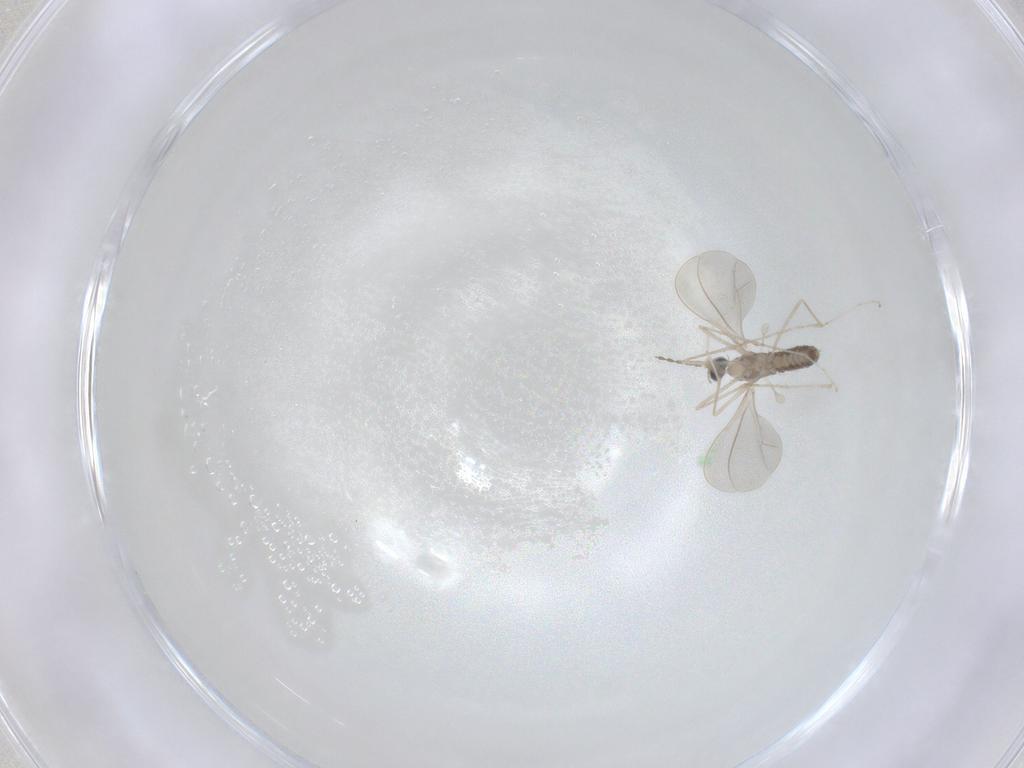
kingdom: Animalia
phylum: Arthropoda
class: Insecta
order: Diptera
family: Cecidomyiidae
